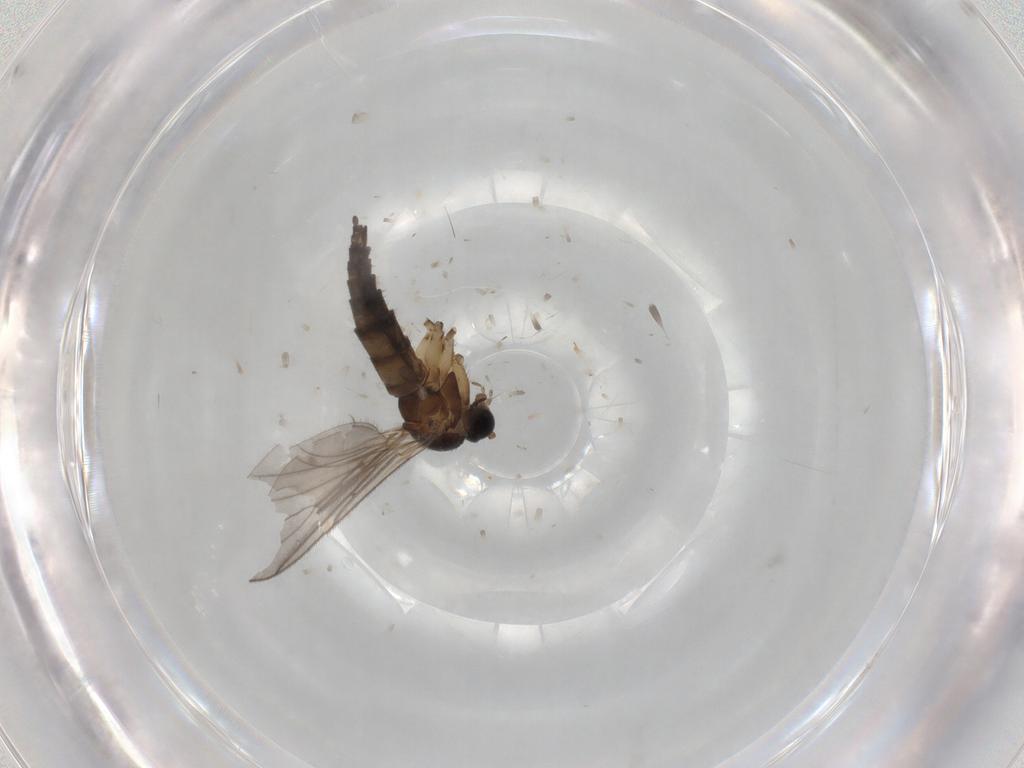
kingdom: Animalia
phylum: Arthropoda
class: Insecta
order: Diptera
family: Sciaridae
